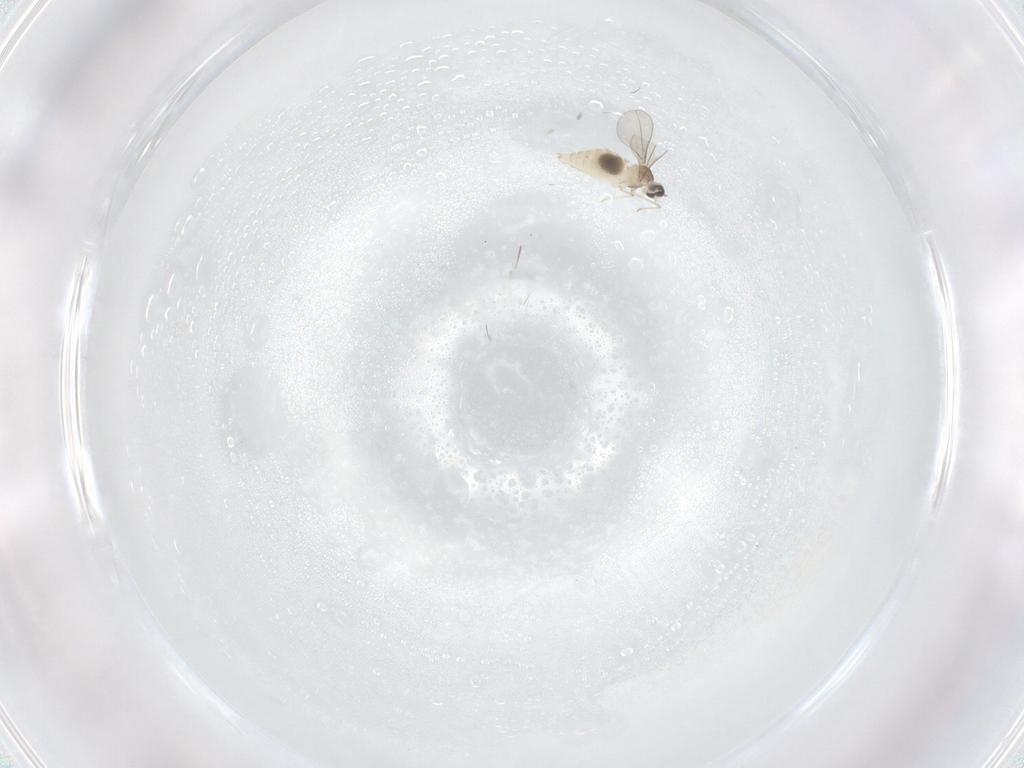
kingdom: Animalia
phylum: Arthropoda
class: Insecta
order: Diptera
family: Cecidomyiidae
